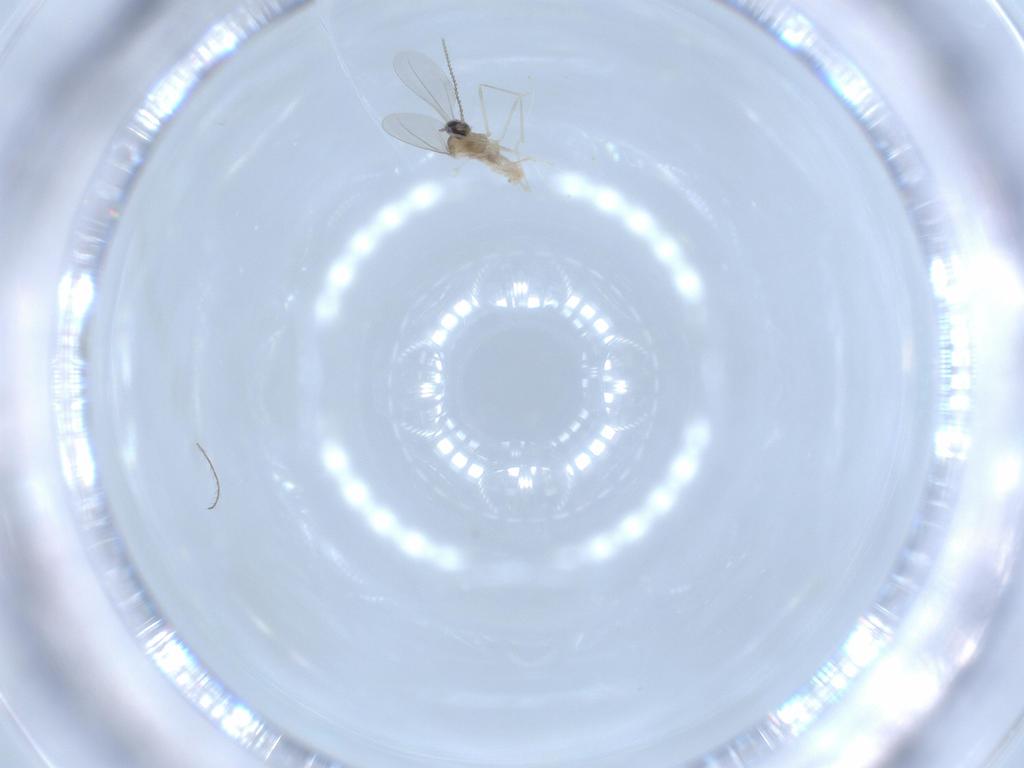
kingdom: Animalia
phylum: Arthropoda
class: Insecta
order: Diptera
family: Cecidomyiidae
